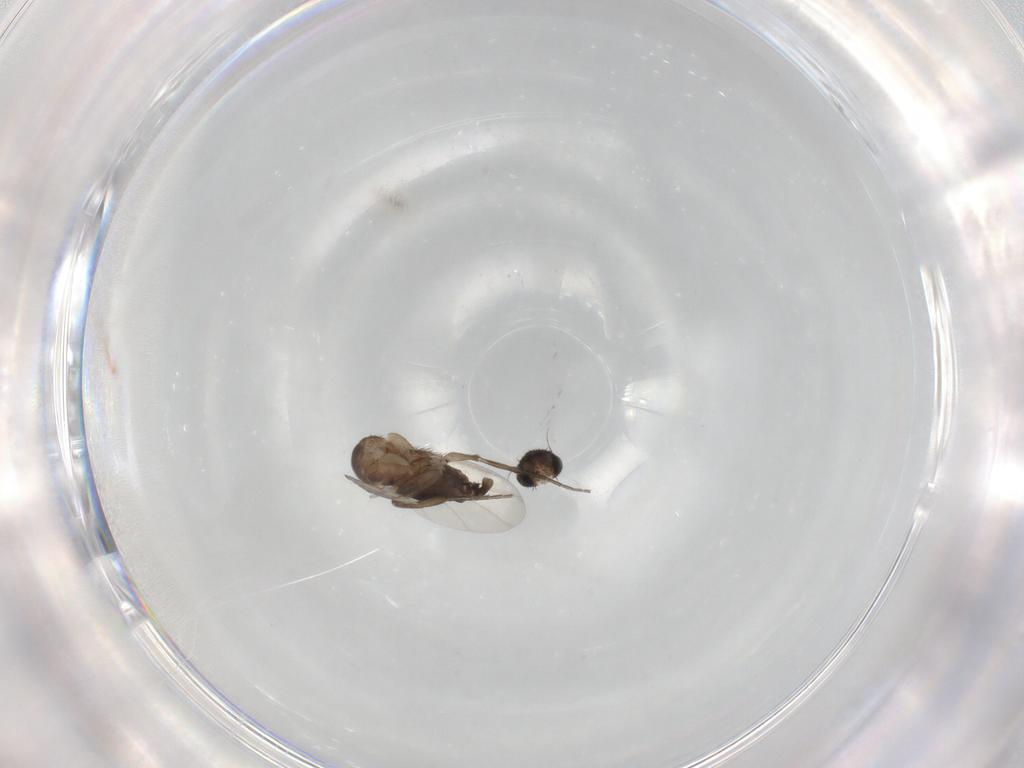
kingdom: Animalia
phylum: Arthropoda
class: Insecta
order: Diptera
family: Phoridae
